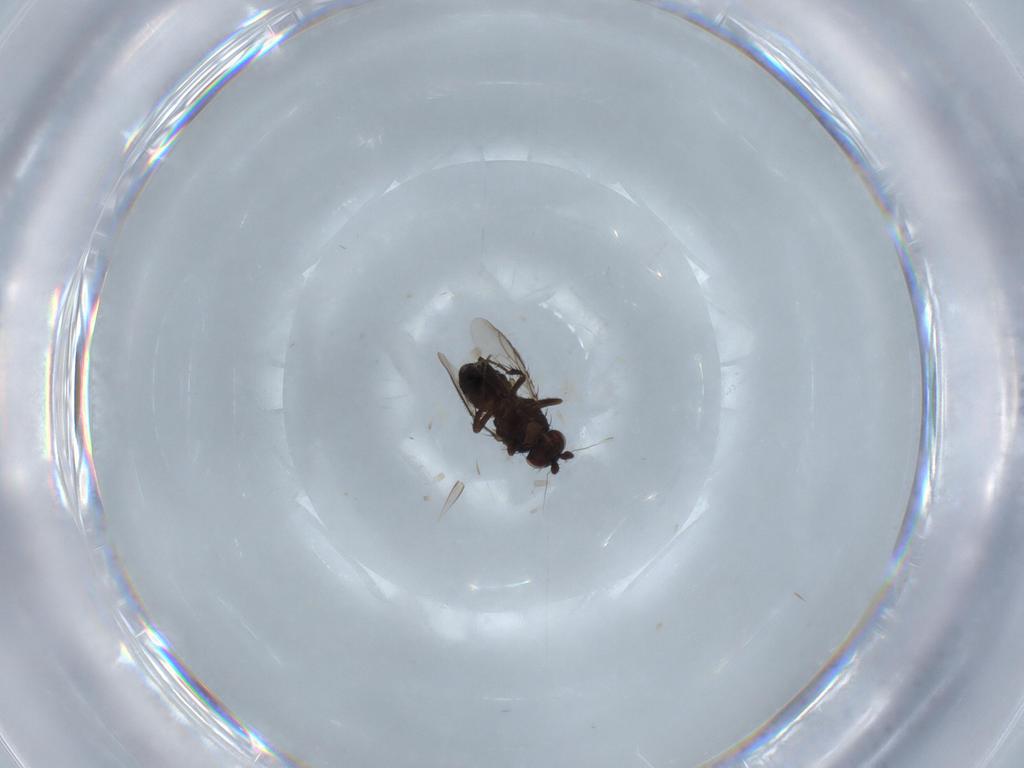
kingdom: Animalia
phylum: Arthropoda
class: Insecta
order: Diptera
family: Sphaeroceridae
